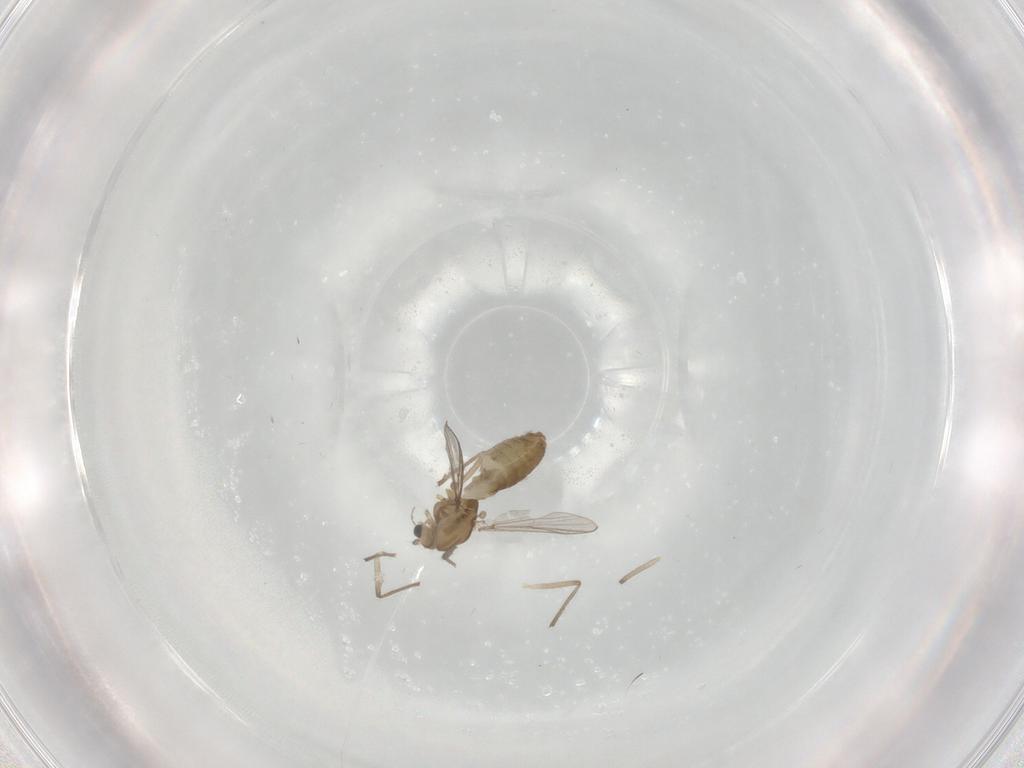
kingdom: Animalia
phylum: Arthropoda
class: Insecta
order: Diptera
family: Chironomidae
